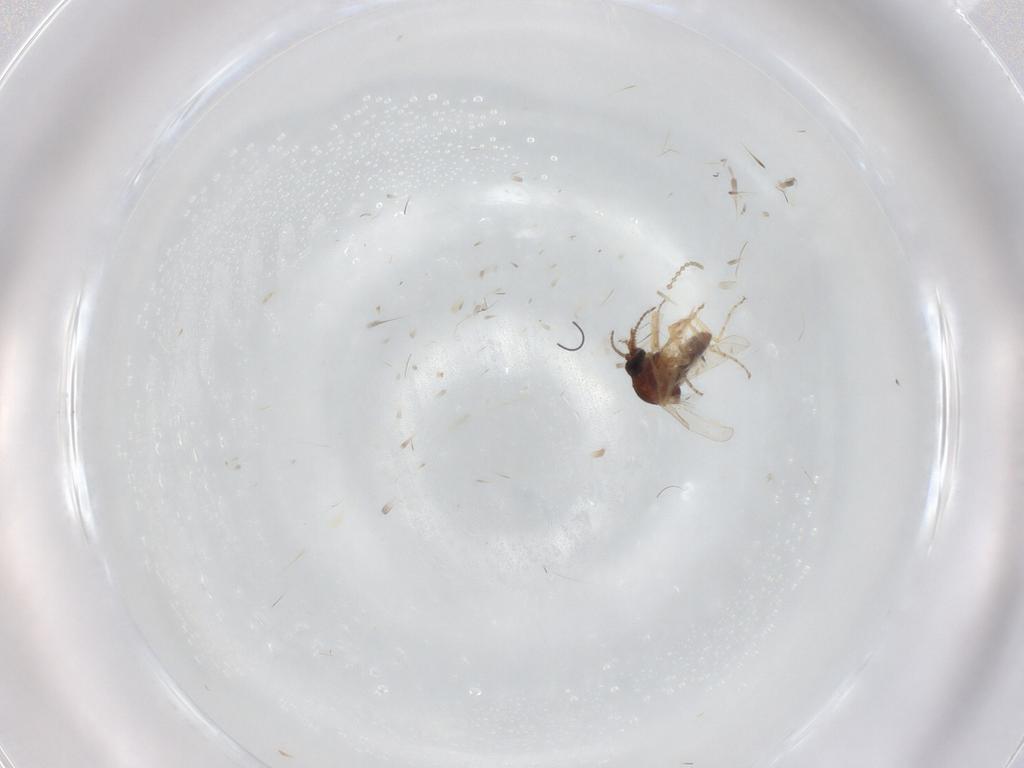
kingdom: Animalia
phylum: Arthropoda
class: Insecta
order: Diptera
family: Ceratopogonidae
